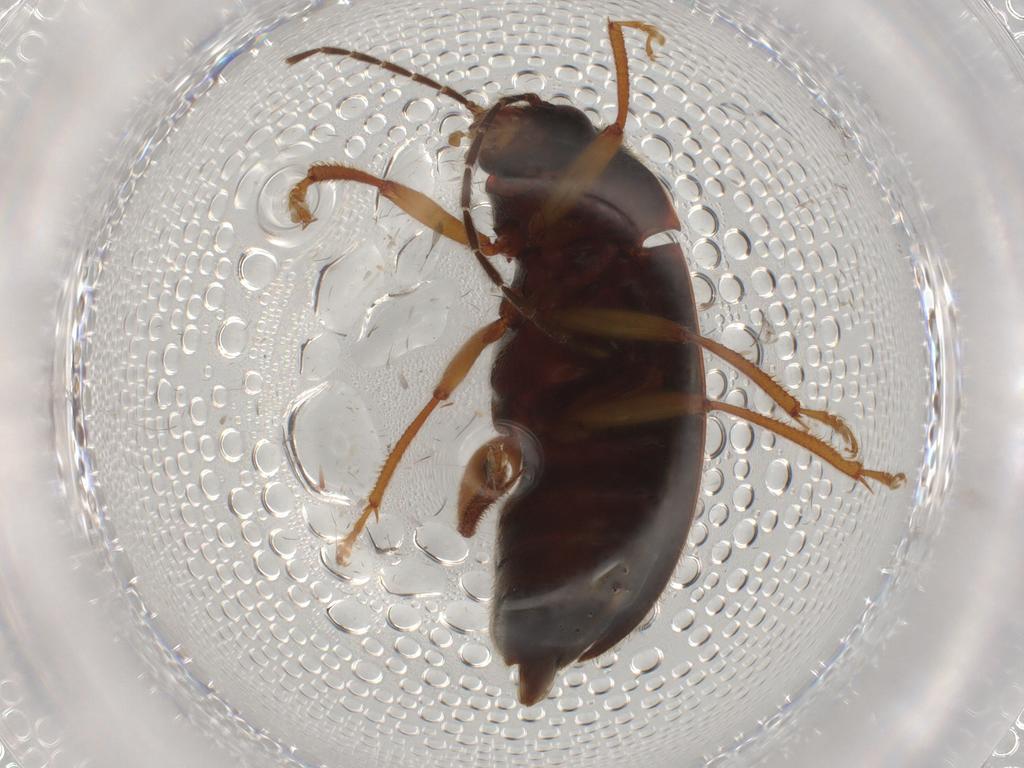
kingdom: Animalia
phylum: Arthropoda
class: Insecta
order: Coleoptera
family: Ptilodactylidae
